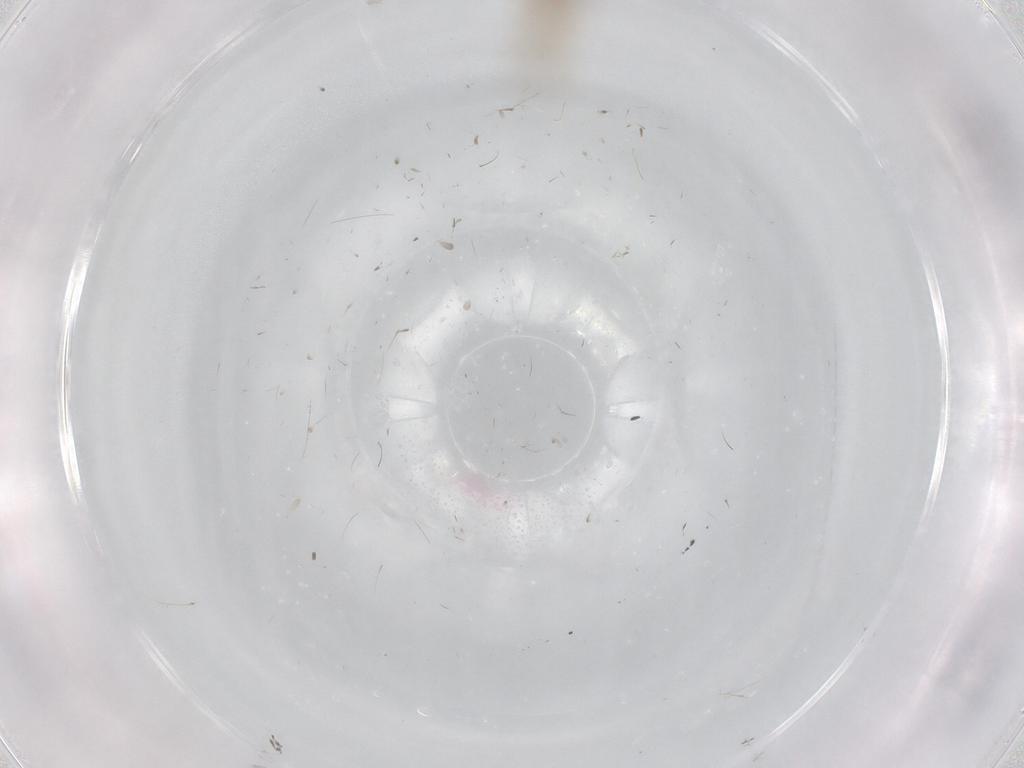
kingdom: Animalia
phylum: Arthropoda
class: Insecta
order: Diptera
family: Cecidomyiidae
